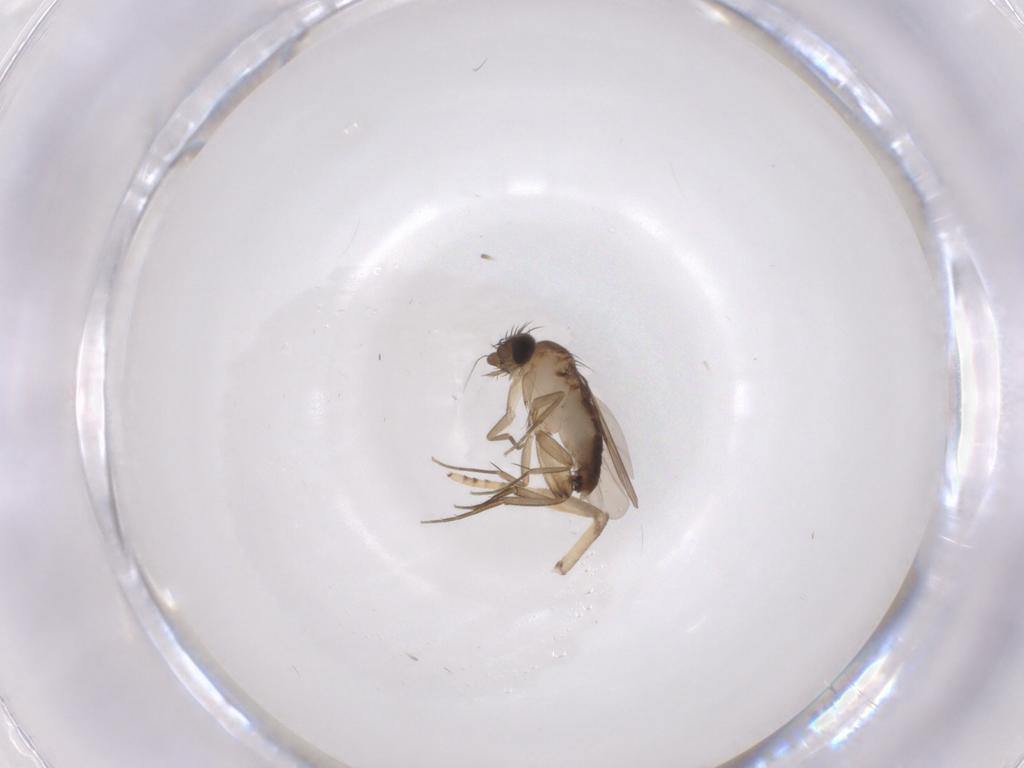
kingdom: Animalia
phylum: Arthropoda
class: Insecta
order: Diptera
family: Phoridae
